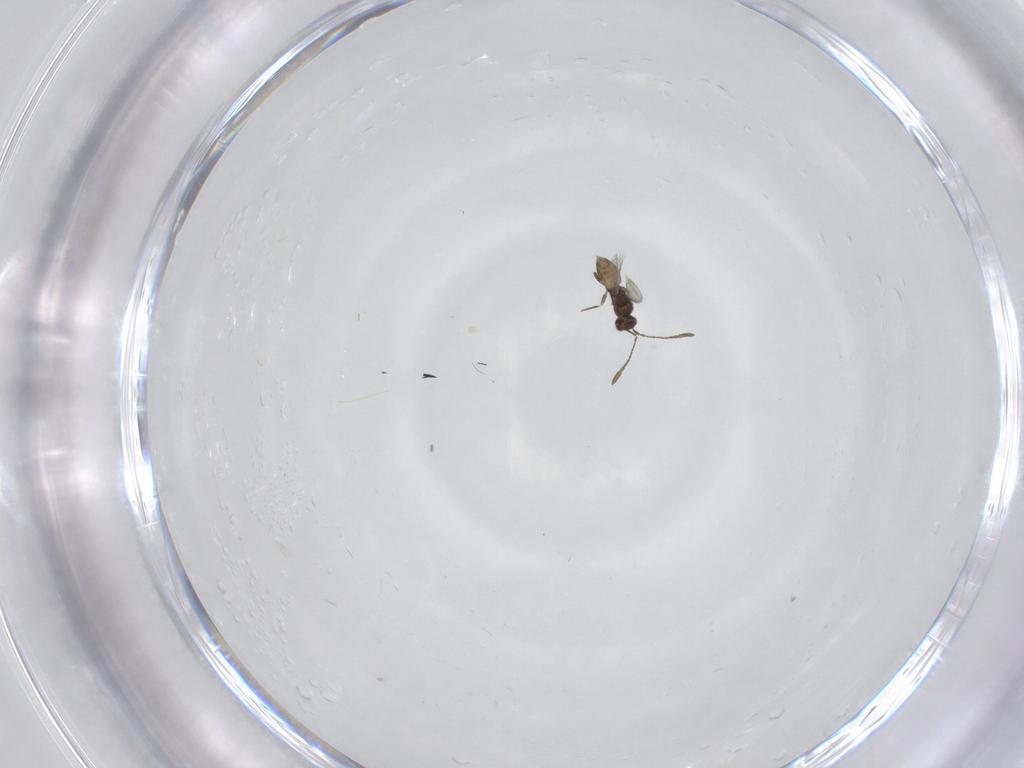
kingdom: Animalia
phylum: Arthropoda
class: Insecta
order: Hymenoptera
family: Mymaridae
